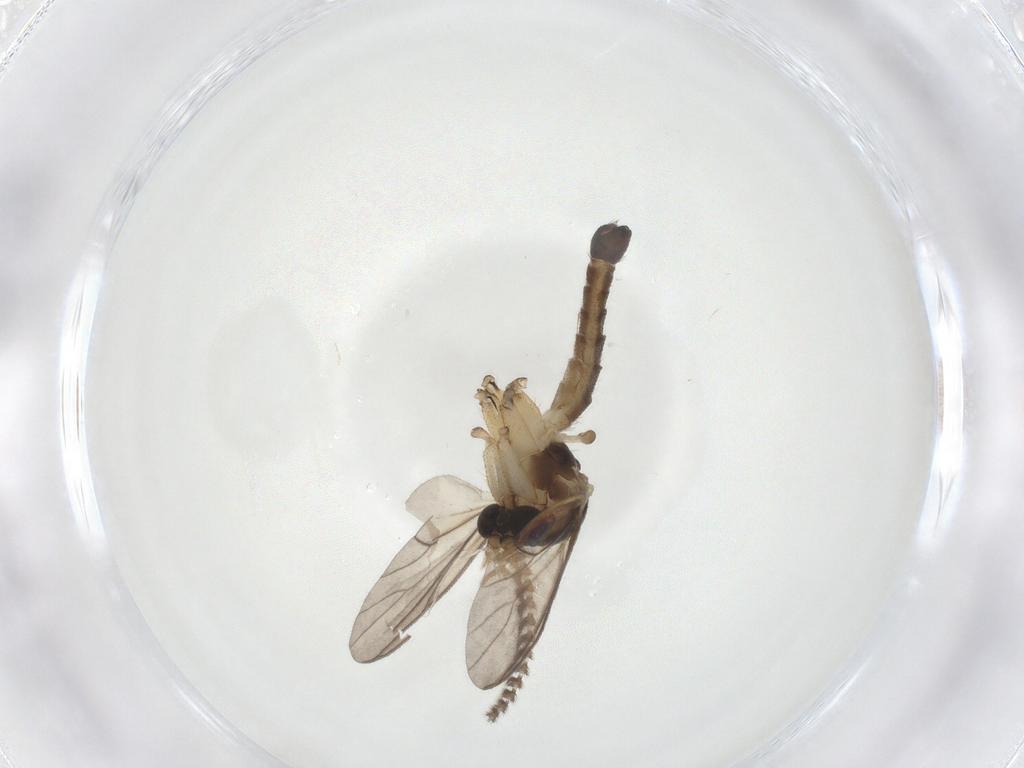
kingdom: Animalia
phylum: Arthropoda
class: Insecta
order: Diptera
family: Mycetophilidae
